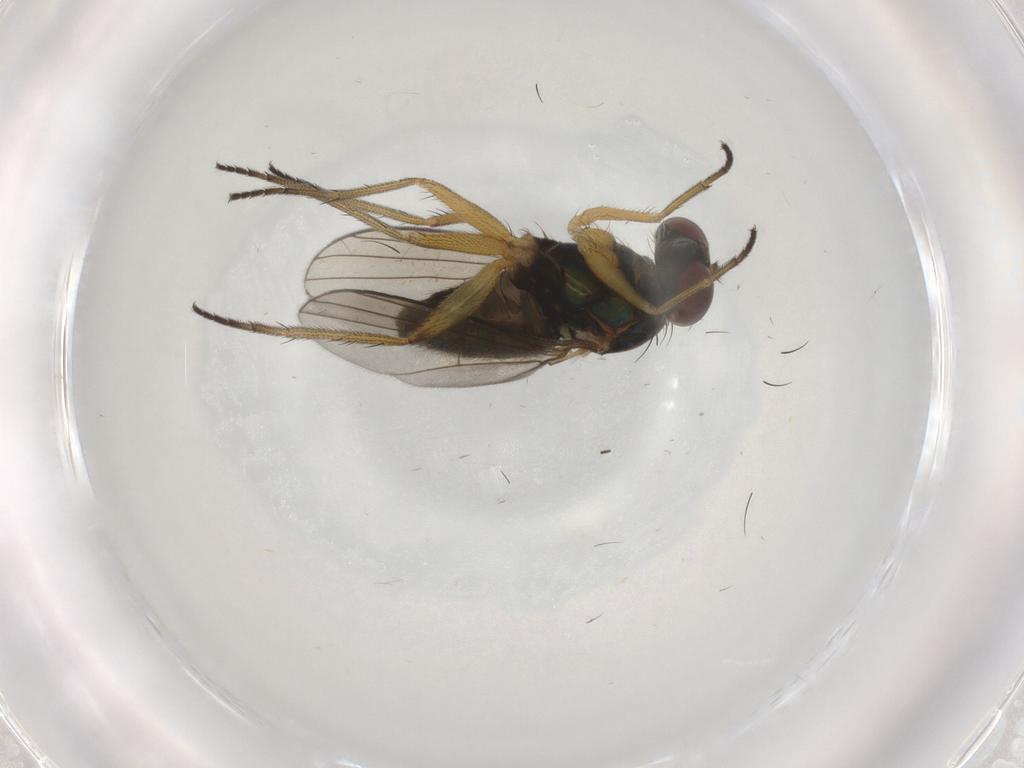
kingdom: Animalia
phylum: Arthropoda
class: Insecta
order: Diptera
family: Dolichopodidae
